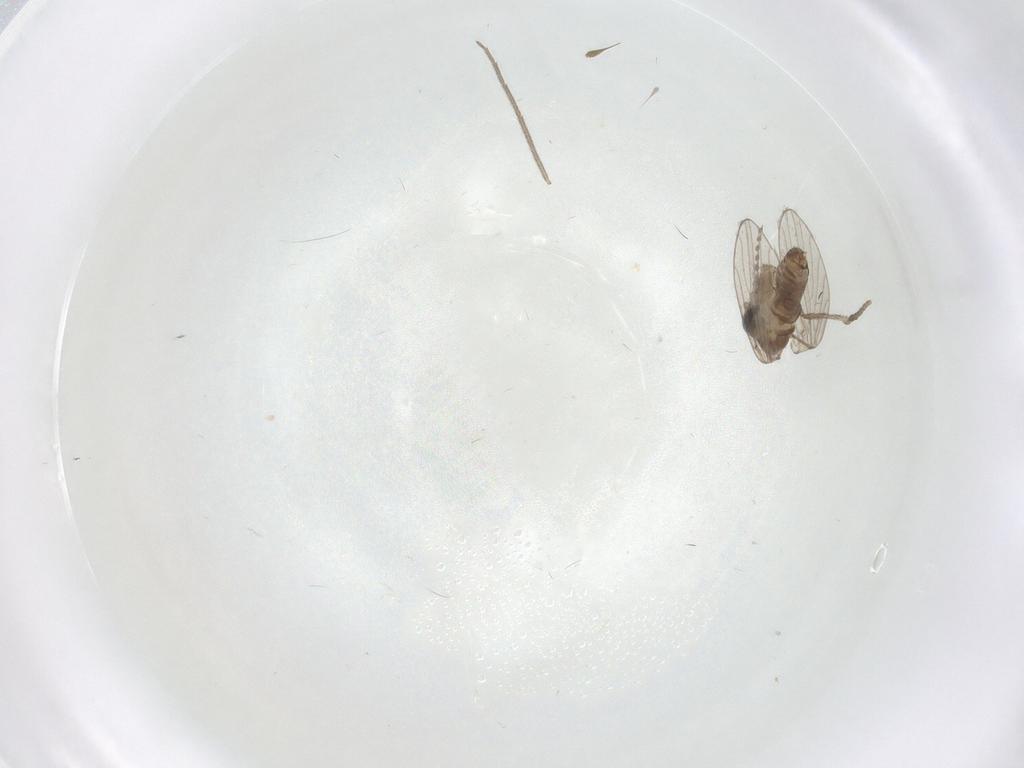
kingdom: Animalia
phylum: Arthropoda
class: Insecta
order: Diptera
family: Chironomidae
